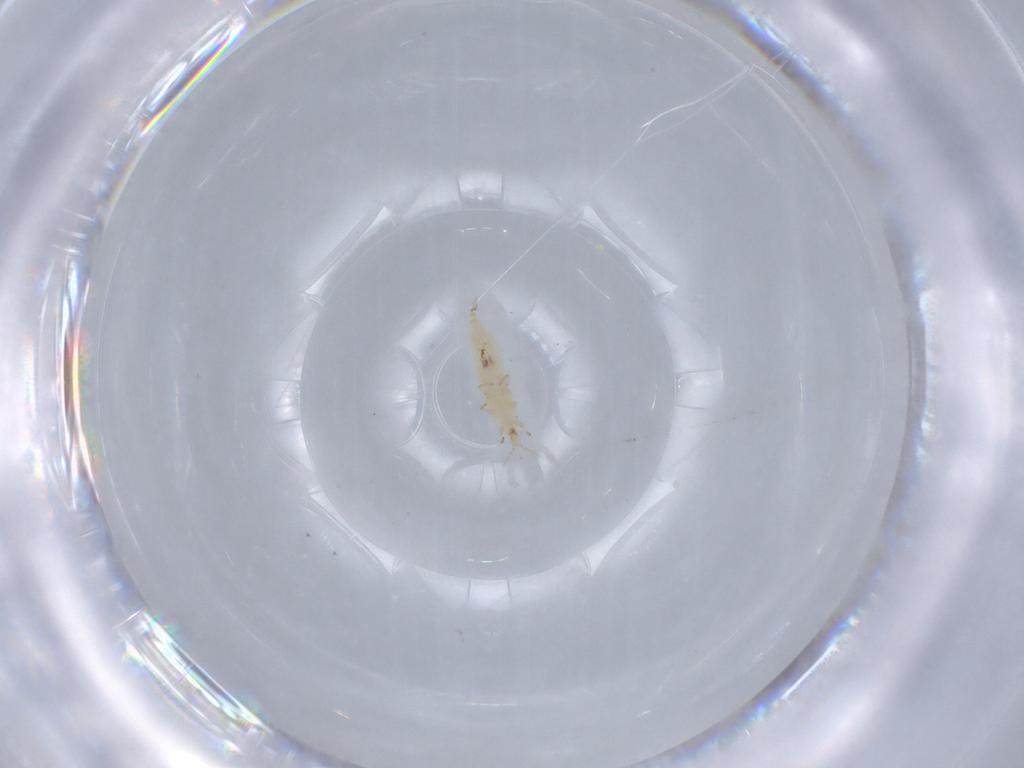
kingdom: Animalia
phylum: Arthropoda
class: Insecta
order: Thysanoptera
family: Thripidae
